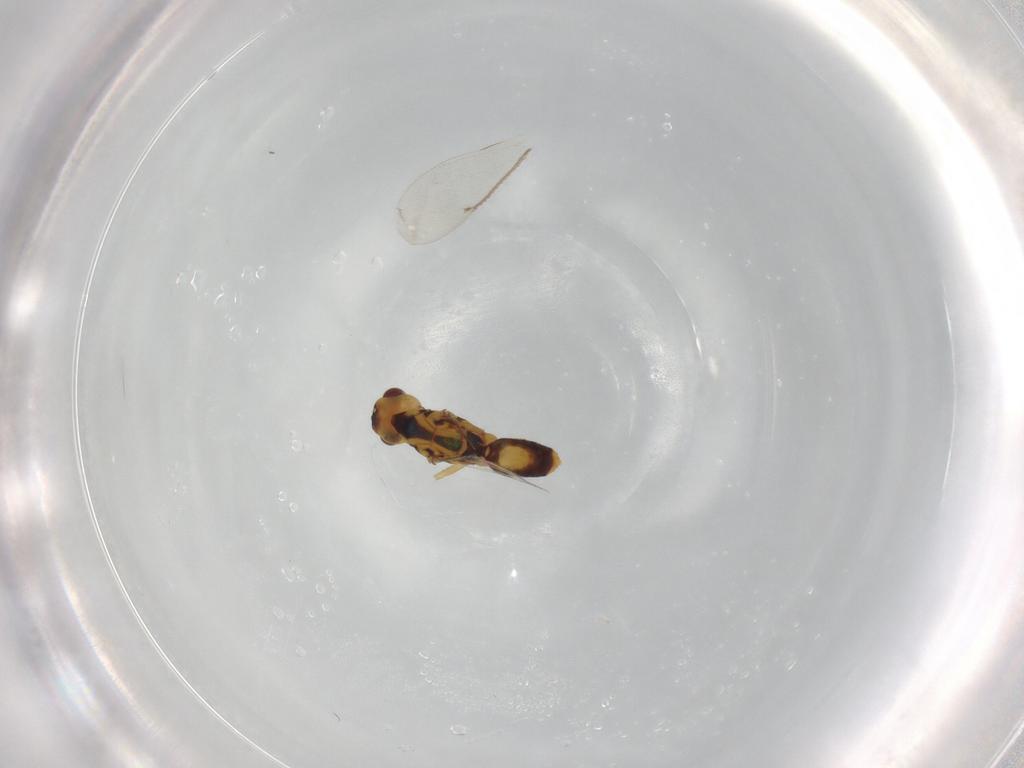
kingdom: Animalia
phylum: Arthropoda
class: Insecta
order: Hymenoptera
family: Eulophidae
